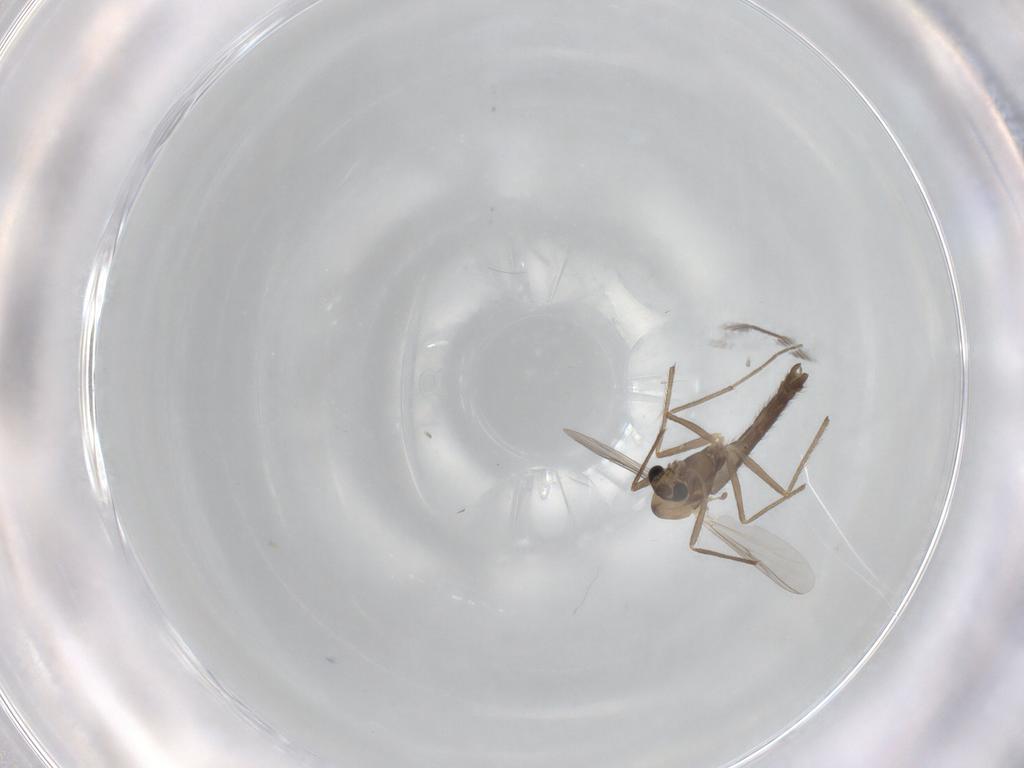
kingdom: Animalia
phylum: Arthropoda
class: Insecta
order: Diptera
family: Chironomidae
